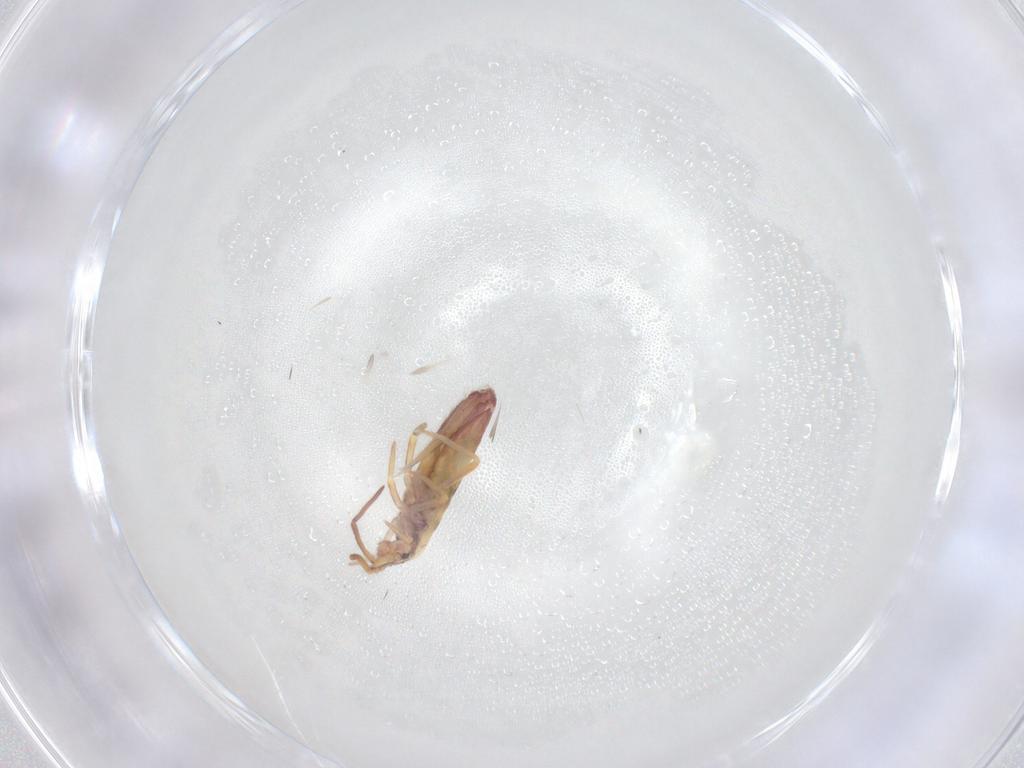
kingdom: Animalia
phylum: Arthropoda
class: Collembola
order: Entomobryomorpha
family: Entomobryidae
